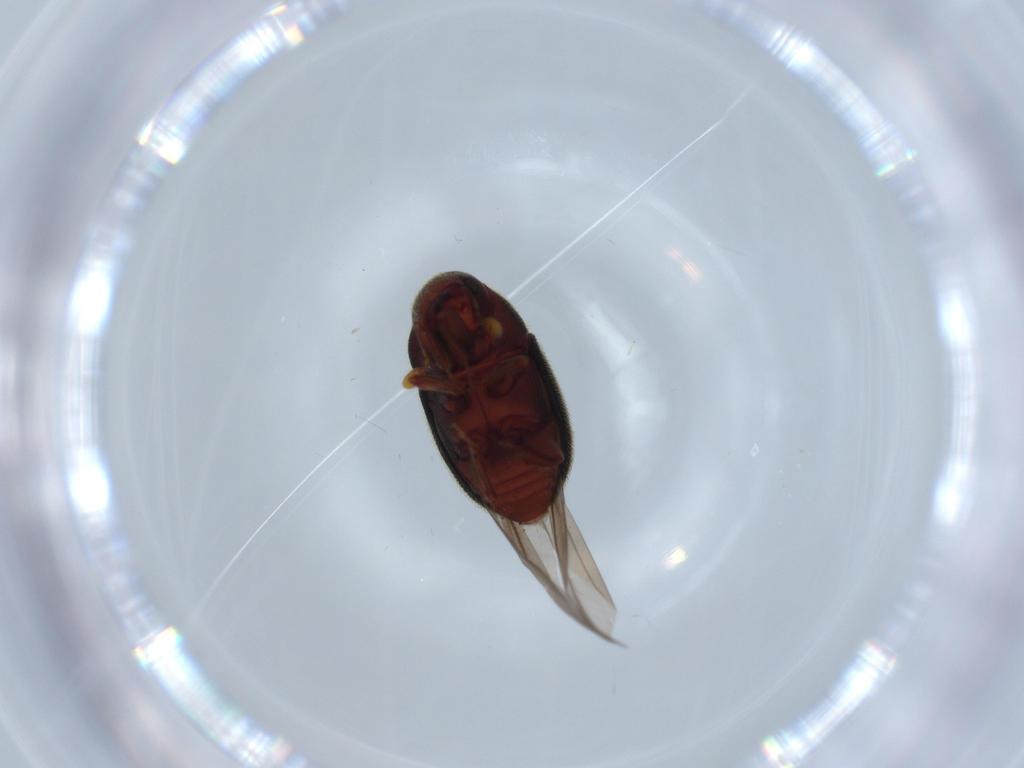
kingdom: Animalia
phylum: Arthropoda
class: Insecta
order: Coleoptera
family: Curculionidae
